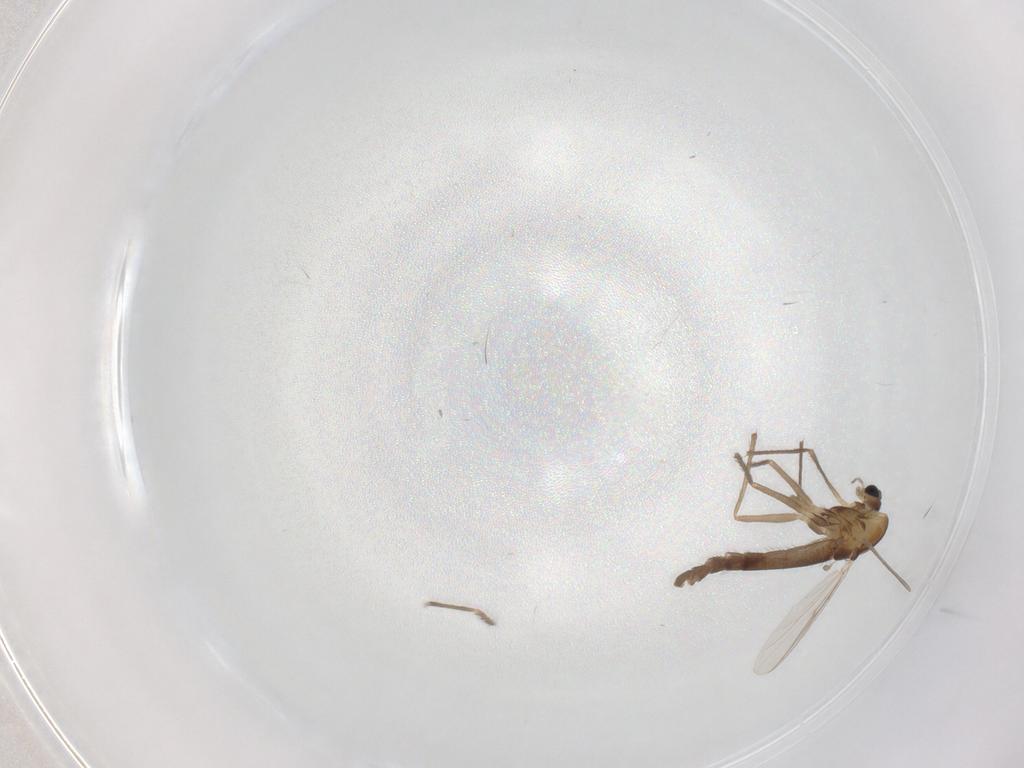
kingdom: Animalia
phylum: Arthropoda
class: Insecta
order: Diptera
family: Chironomidae
